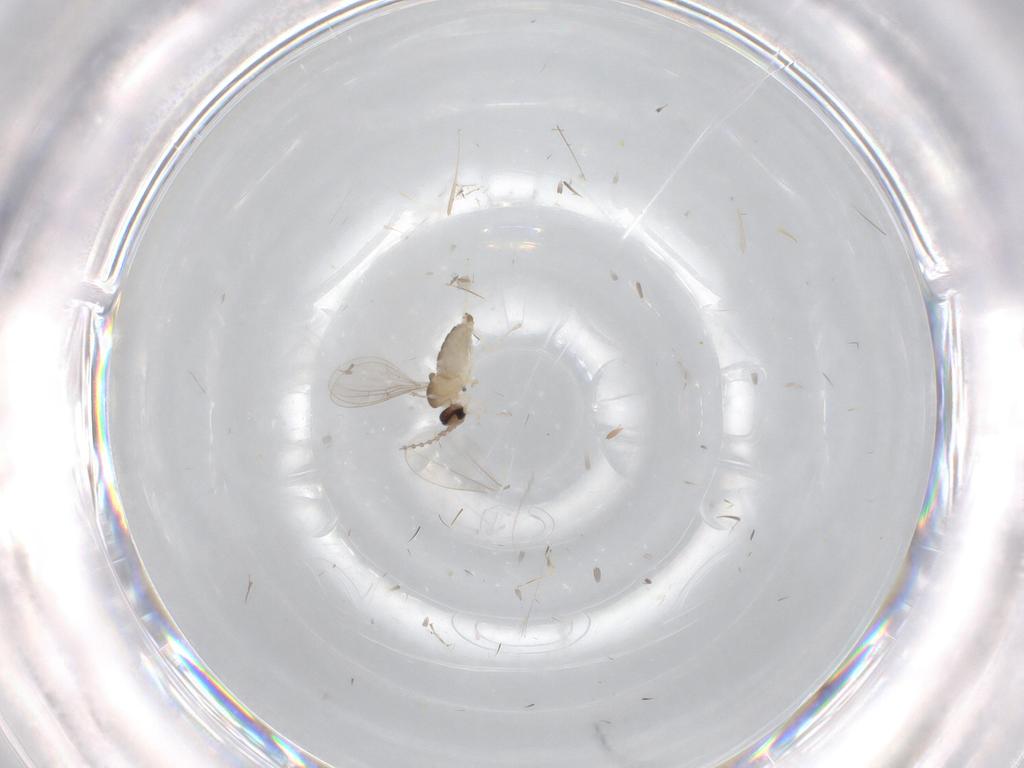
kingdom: Animalia
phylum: Arthropoda
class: Insecta
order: Diptera
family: Cecidomyiidae
